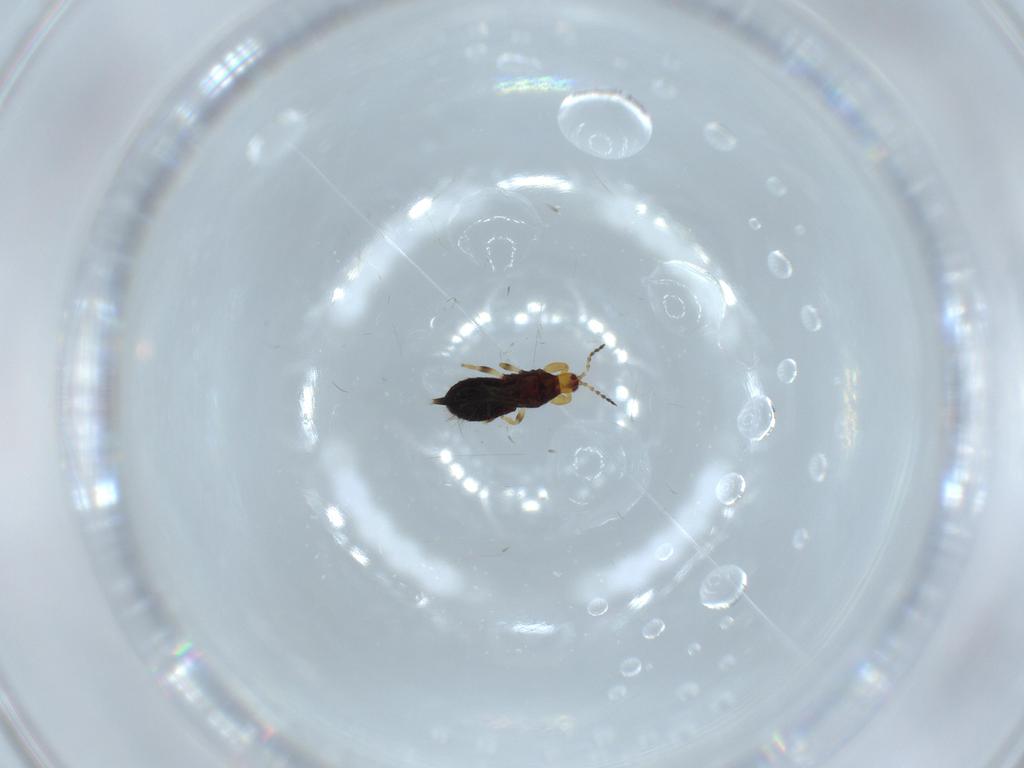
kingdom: Animalia
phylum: Arthropoda
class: Insecta
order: Thysanoptera
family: Phlaeothripidae
